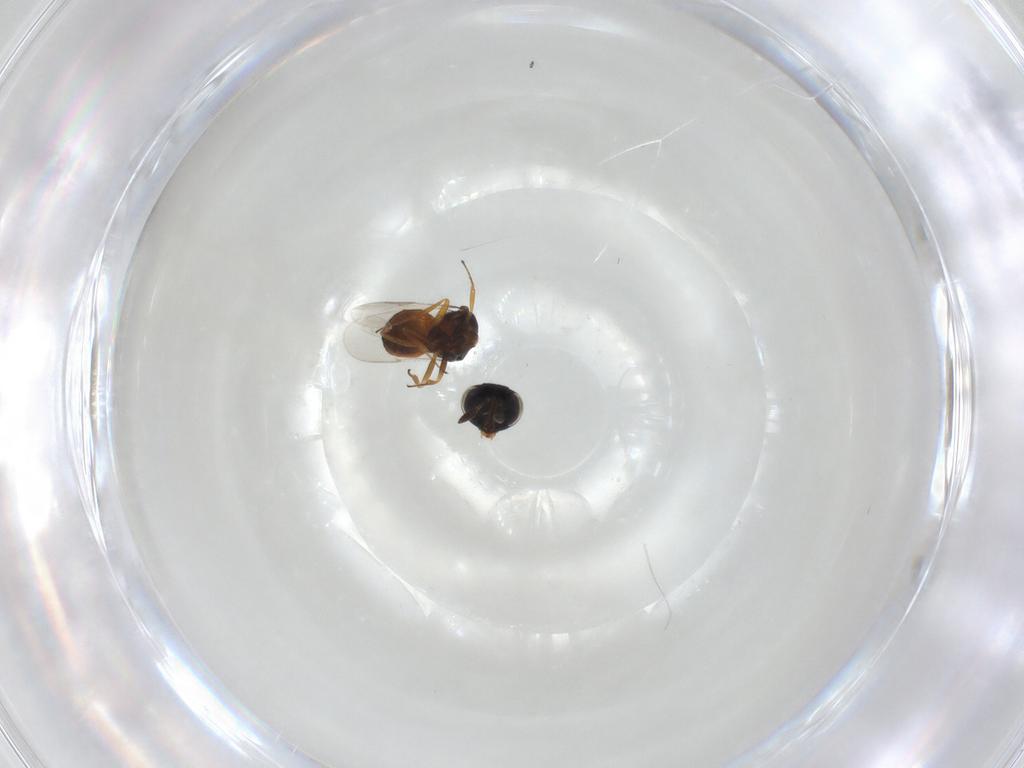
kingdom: Animalia
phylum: Arthropoda
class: Insecta
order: Hymenoptera
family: Scelionidae
